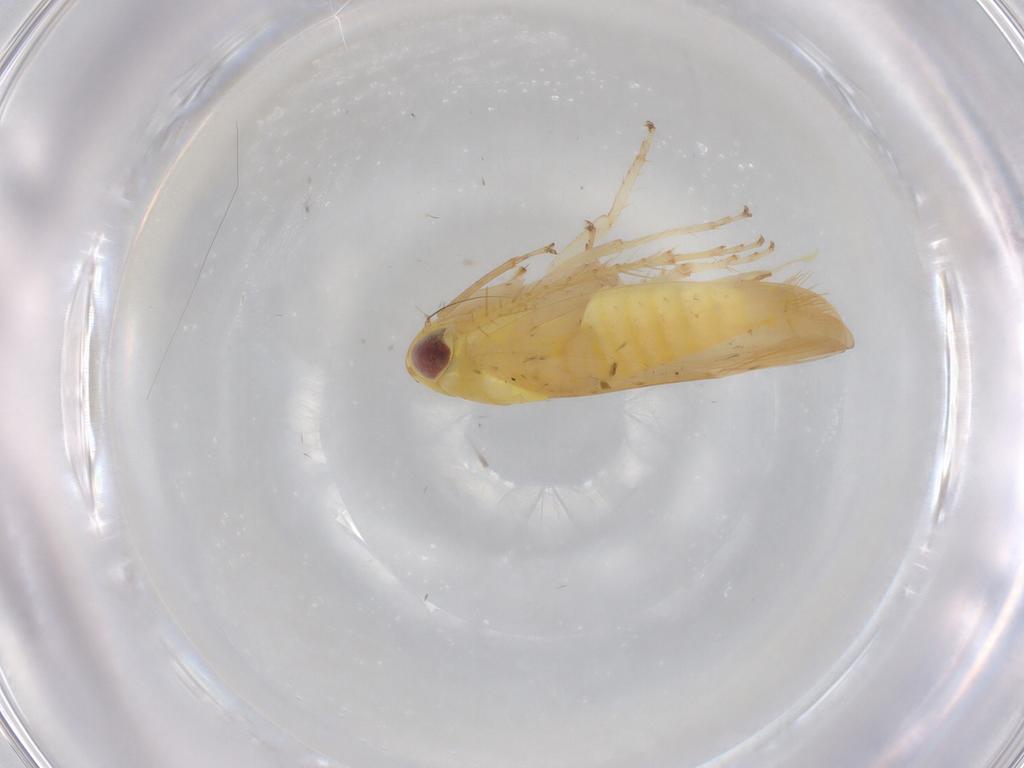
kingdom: Animalia
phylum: Arthropoda
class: Insecta
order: Hemiptera
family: Cicadellidae
